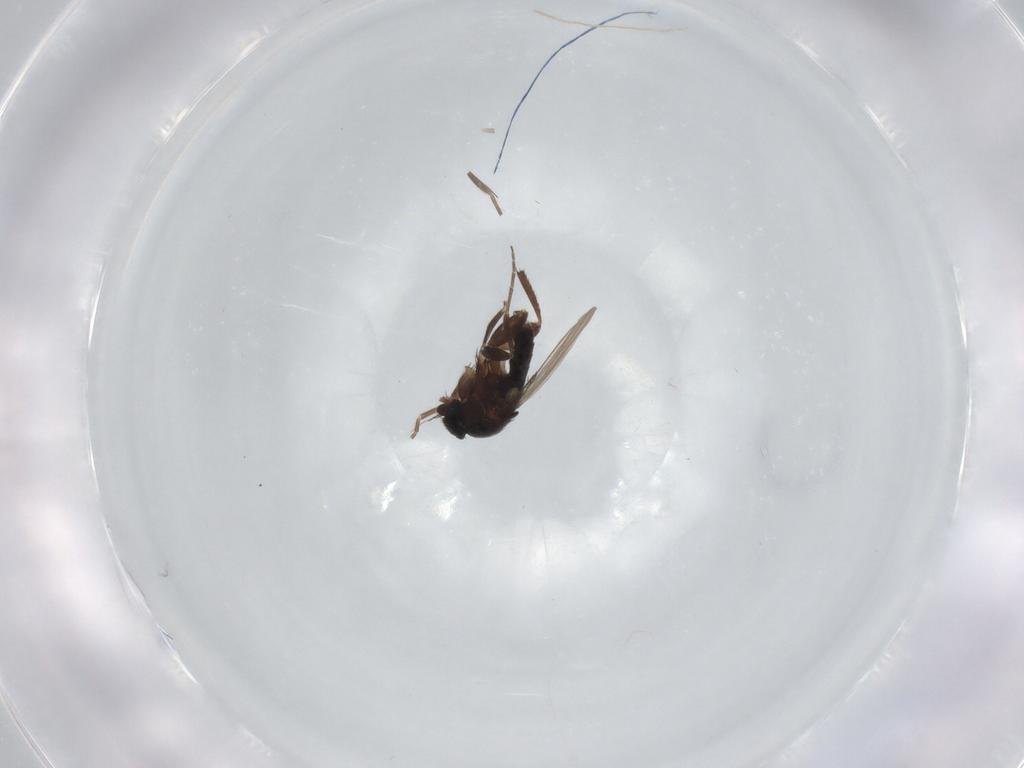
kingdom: Animalia
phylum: Arthropoda
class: Insecta
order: Diptera
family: Phoridae
